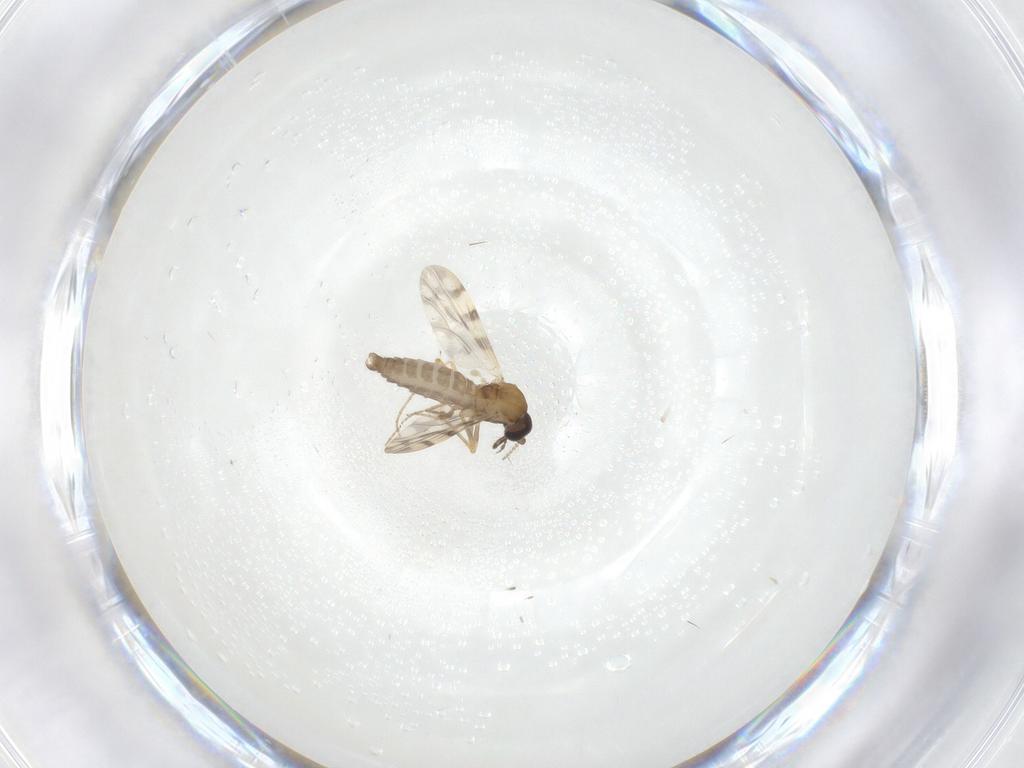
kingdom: Animalia
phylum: Arthropoda
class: Insecta
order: Diptera
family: Ceratopogonidae
